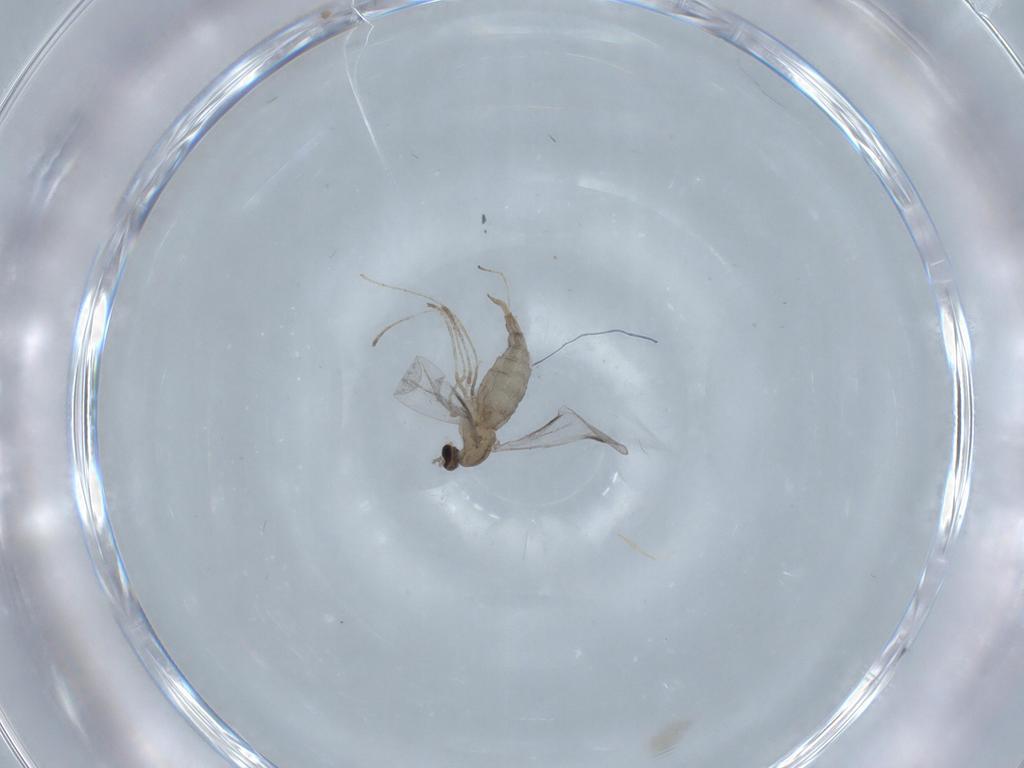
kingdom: Animalia
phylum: Arthropoda
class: Insecta
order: Diptera
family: Cecidomyiidae
